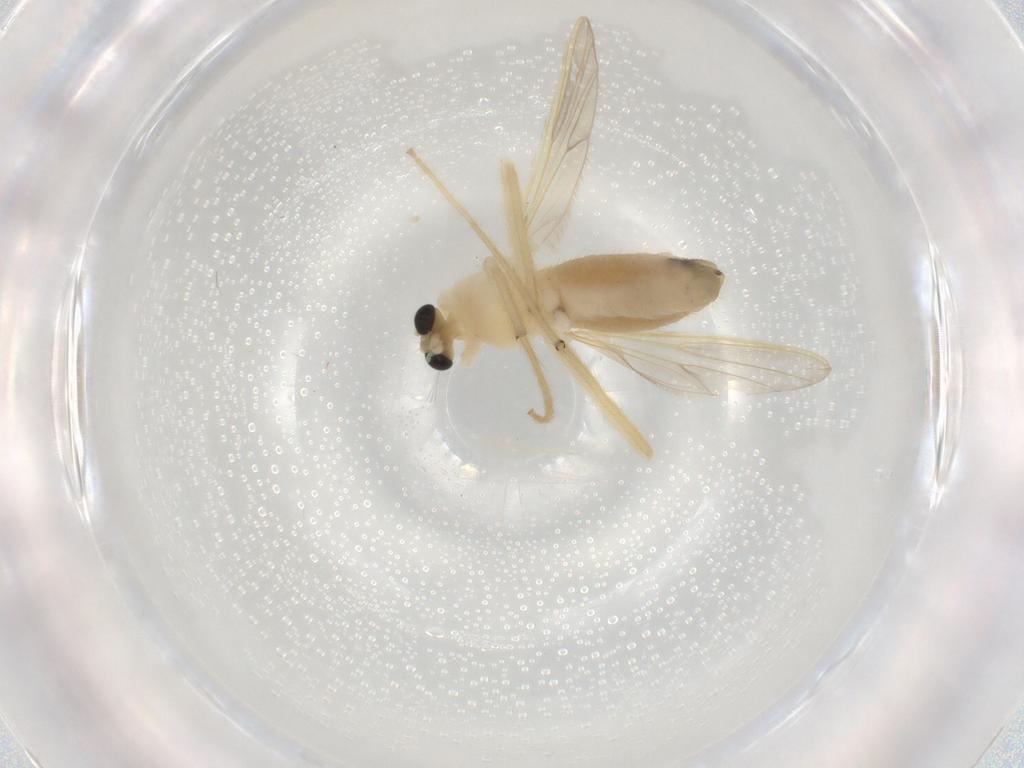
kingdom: Animalia
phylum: Arthropoda
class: Insecta
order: Diptera
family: Chironomidae
